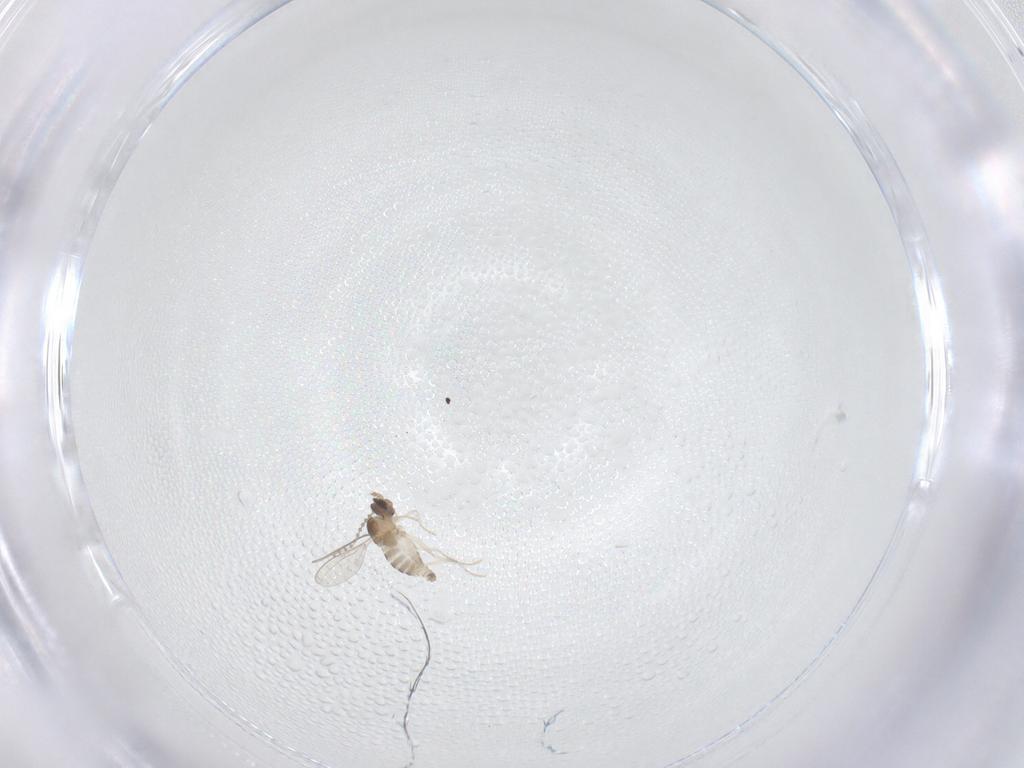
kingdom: Animalia
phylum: Arthropoda
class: Insecta
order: Diptera
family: Cecidomyiidae
